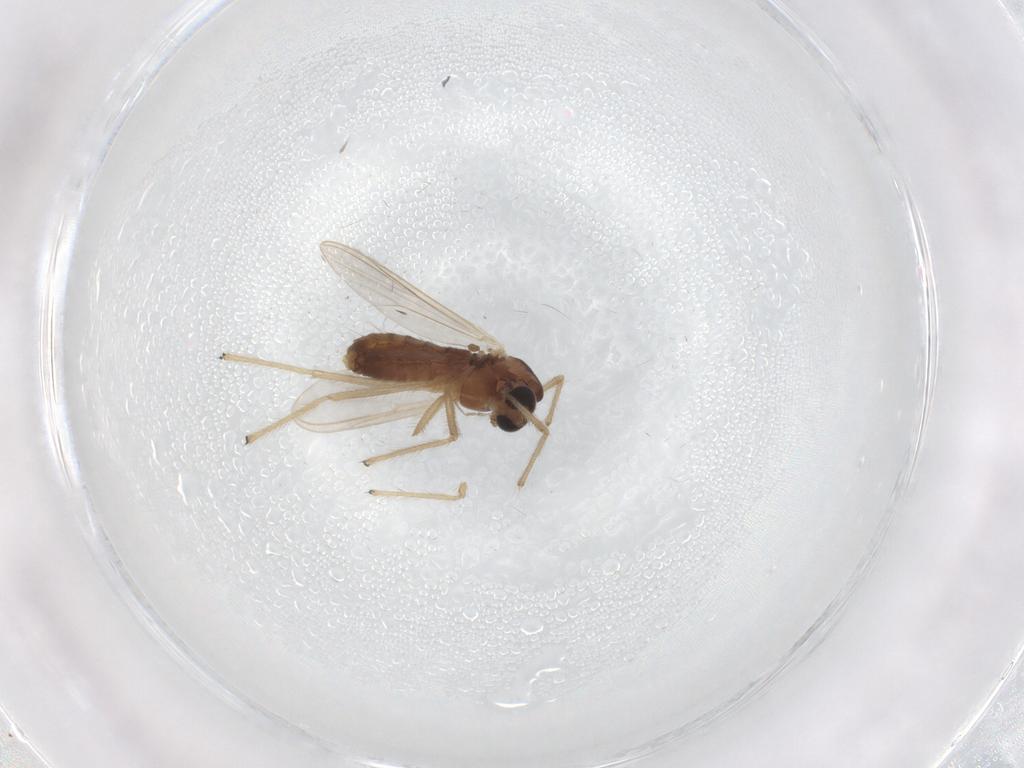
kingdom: Animalia
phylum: Arthropoda
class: Insecta
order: Diptera
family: Chironomidae
